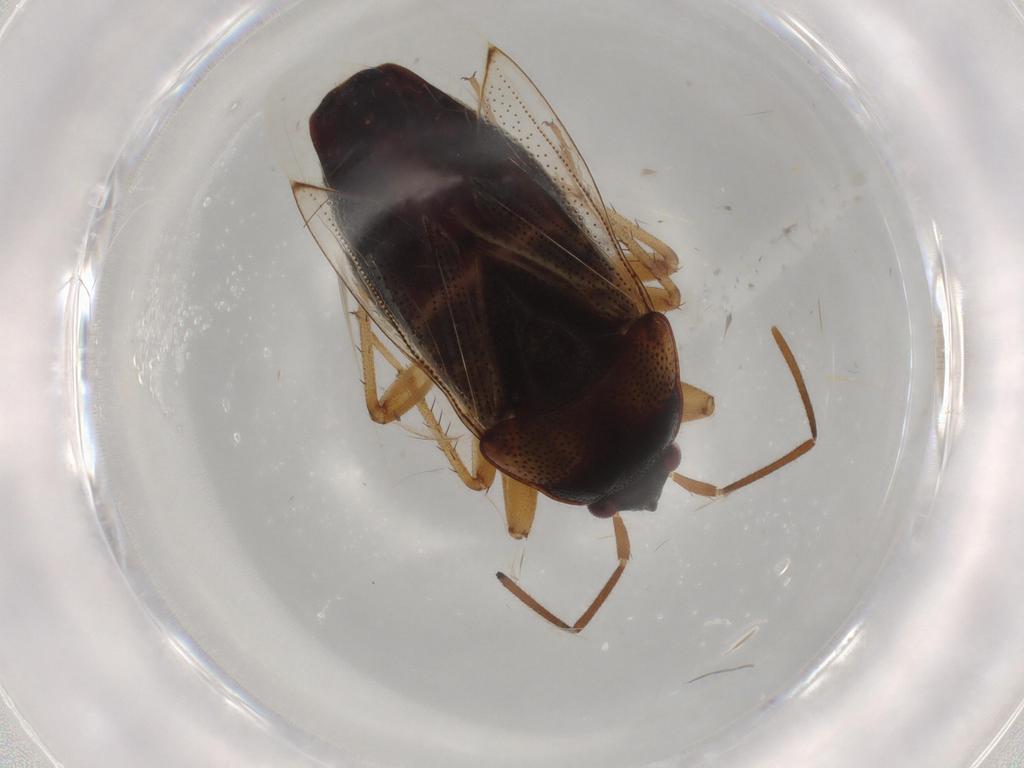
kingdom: Animalia
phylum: Arthropoda
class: Insecta
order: Hemiptera
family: Rhyparochromidae
